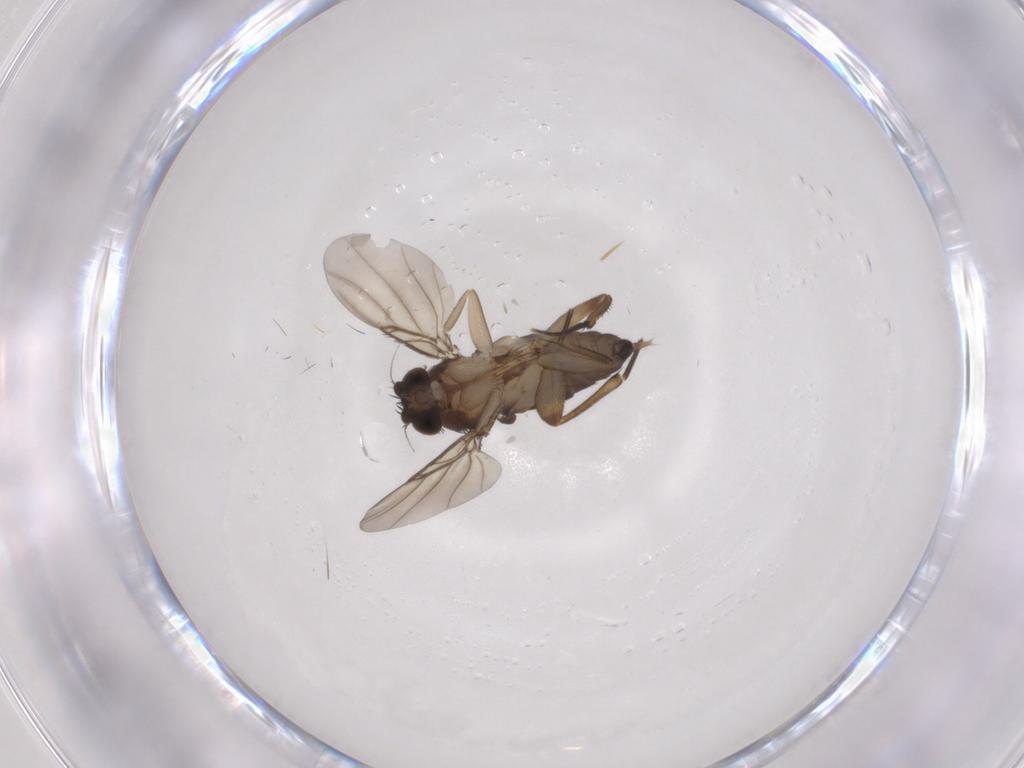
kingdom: Animalia
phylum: Arthropoda
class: Insecta
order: Diptera
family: Phoridae
